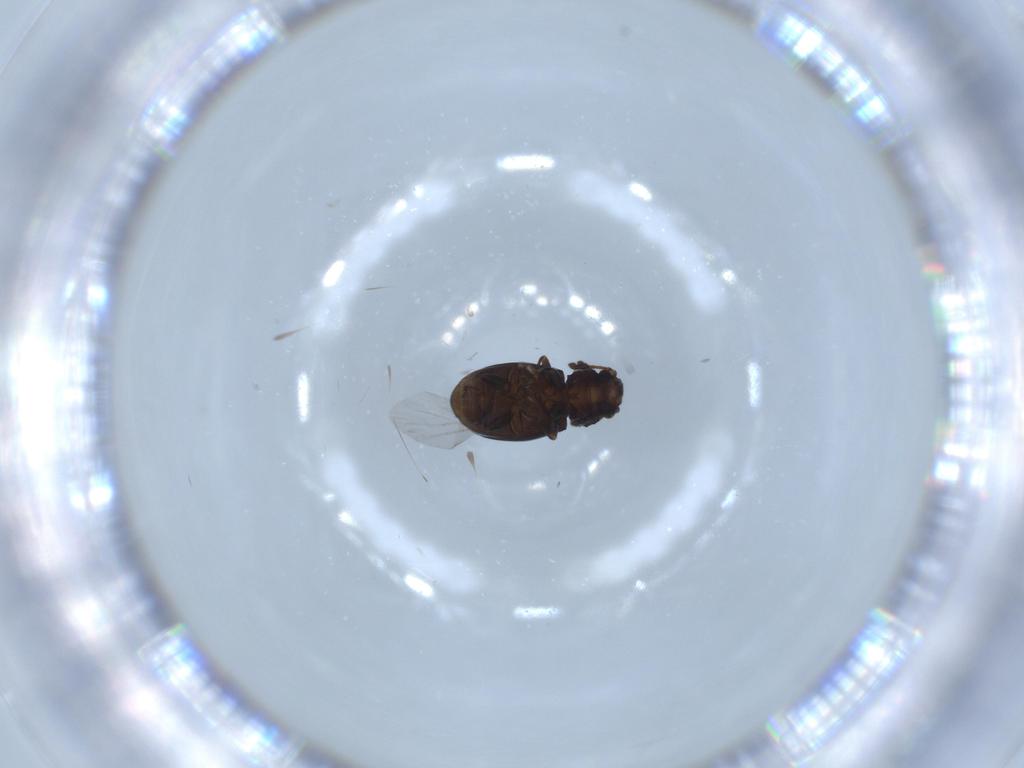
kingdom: Animalia
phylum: Arthropoda
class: Insecta
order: Coleoptera
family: Salpingidae
